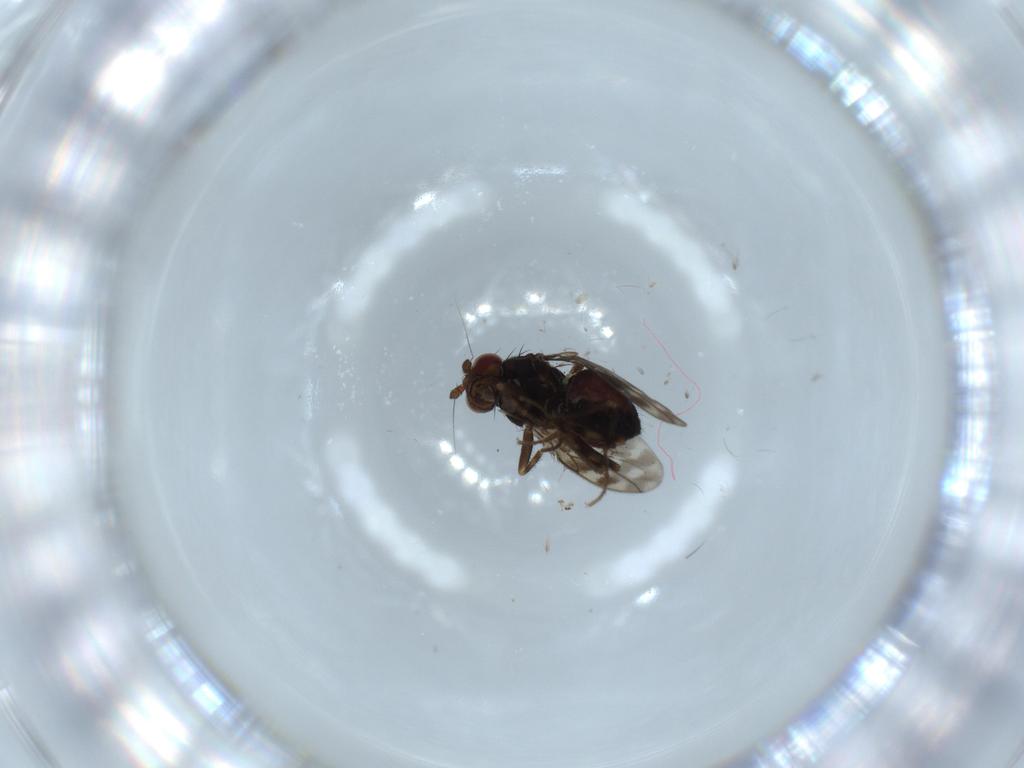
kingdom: Animalia
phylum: Arthropoda
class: Insecta
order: Diptera
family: Sphaeroceridae
